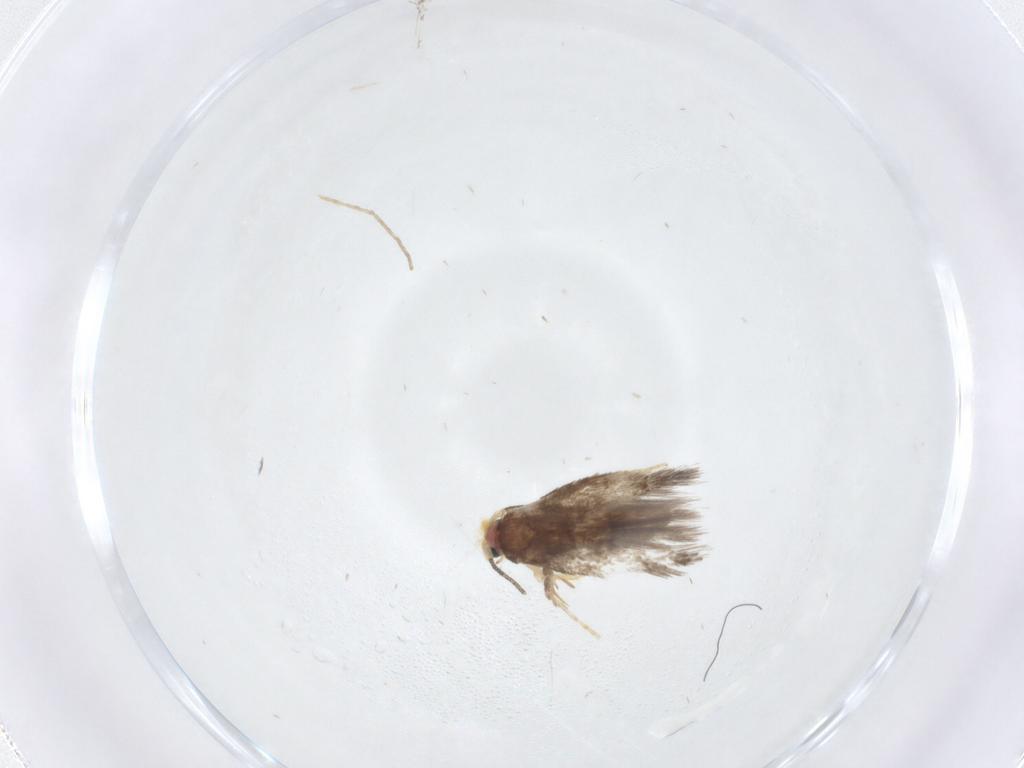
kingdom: Animalia
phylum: Arthropoda
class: Insecta
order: Lepidoptera
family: Nepticulidae
